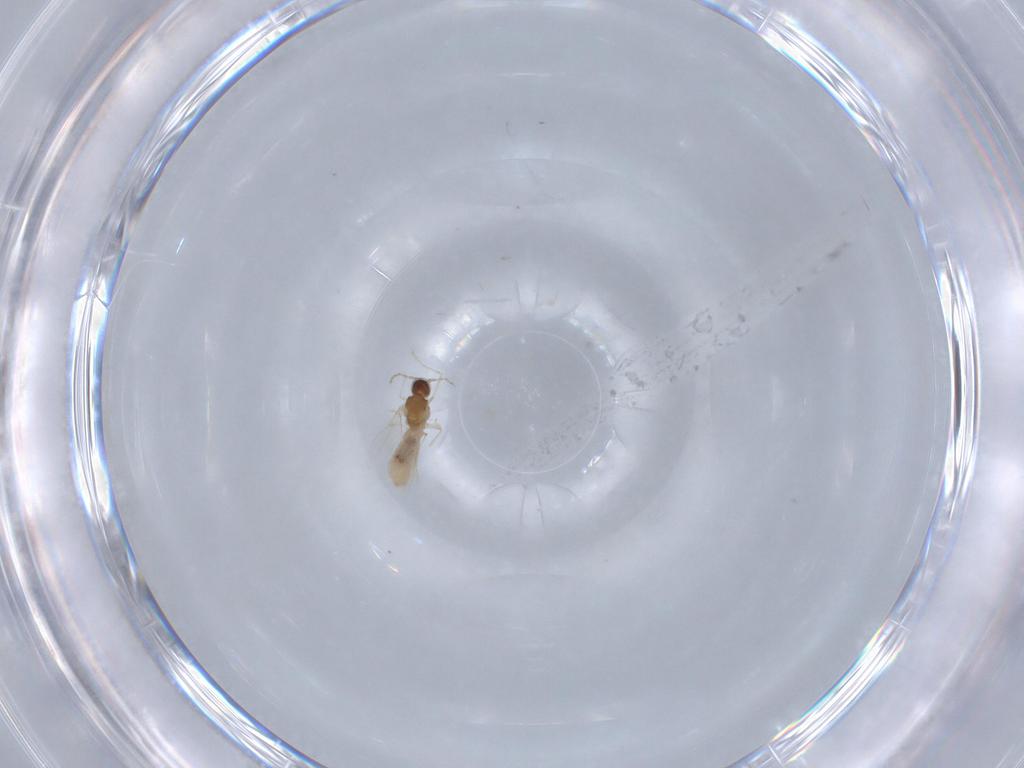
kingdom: Animalia
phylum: Arthropoda
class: Insecta
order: Diptera
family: Cecidomyiidae
